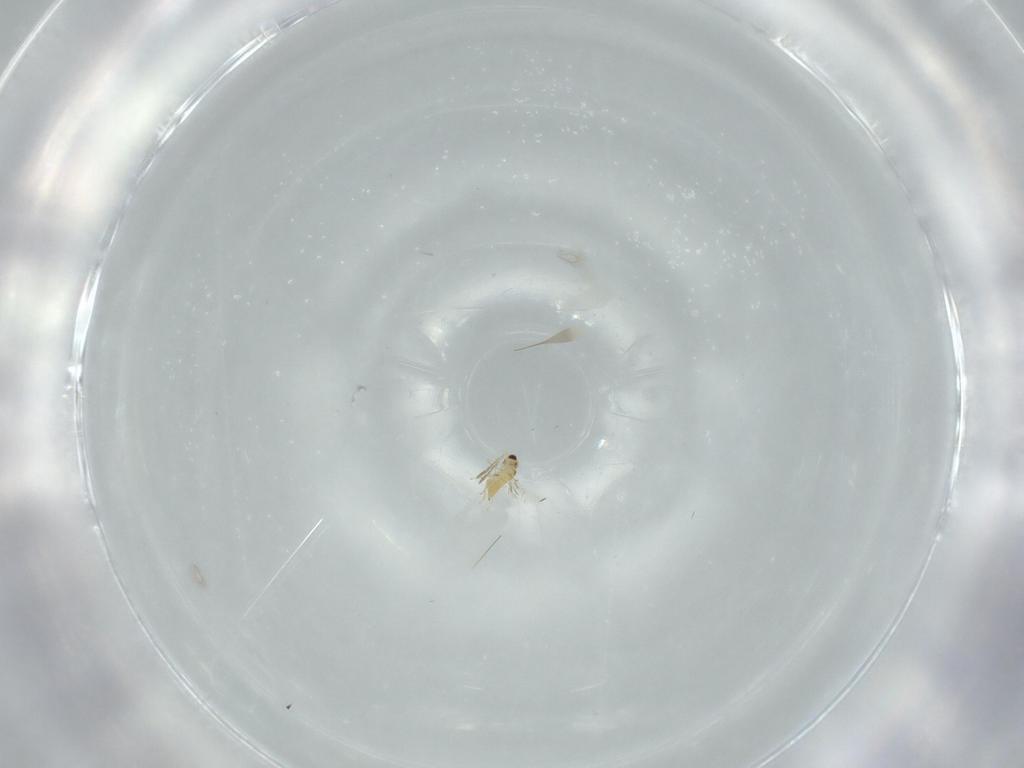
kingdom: Animalia
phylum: Arthropoda
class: Insecta
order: Hymenoptera
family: Mymaridae
